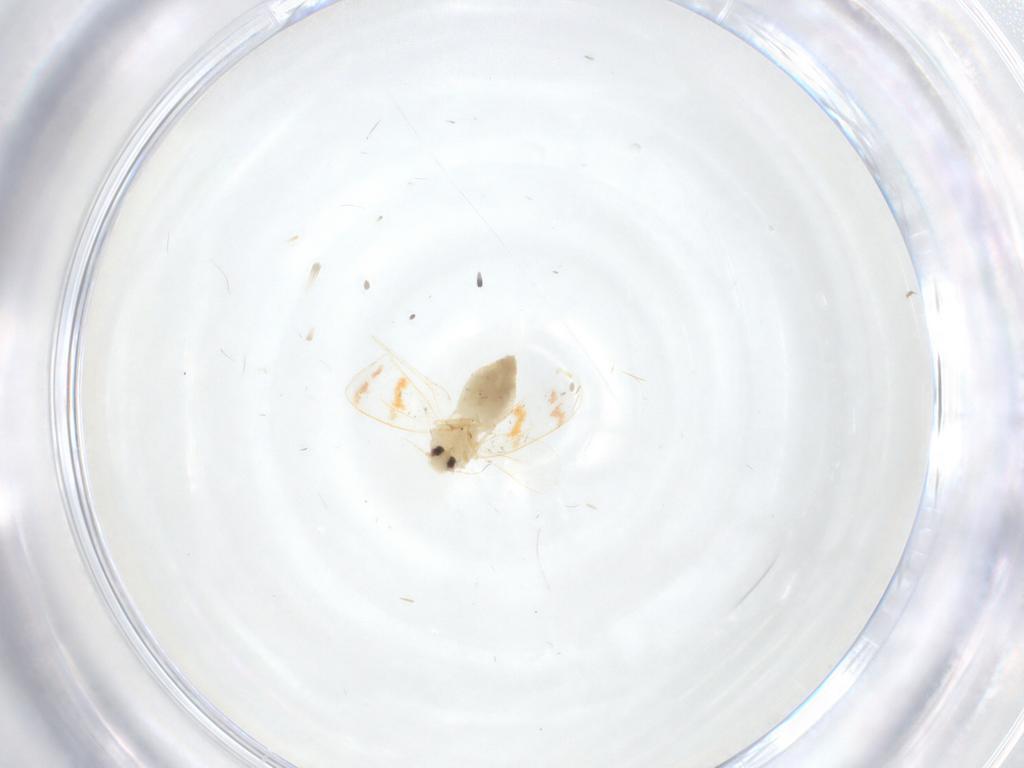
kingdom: Animalia
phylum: Arthropoda
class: Insecta
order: Hemiptera
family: Aleyrodidae
